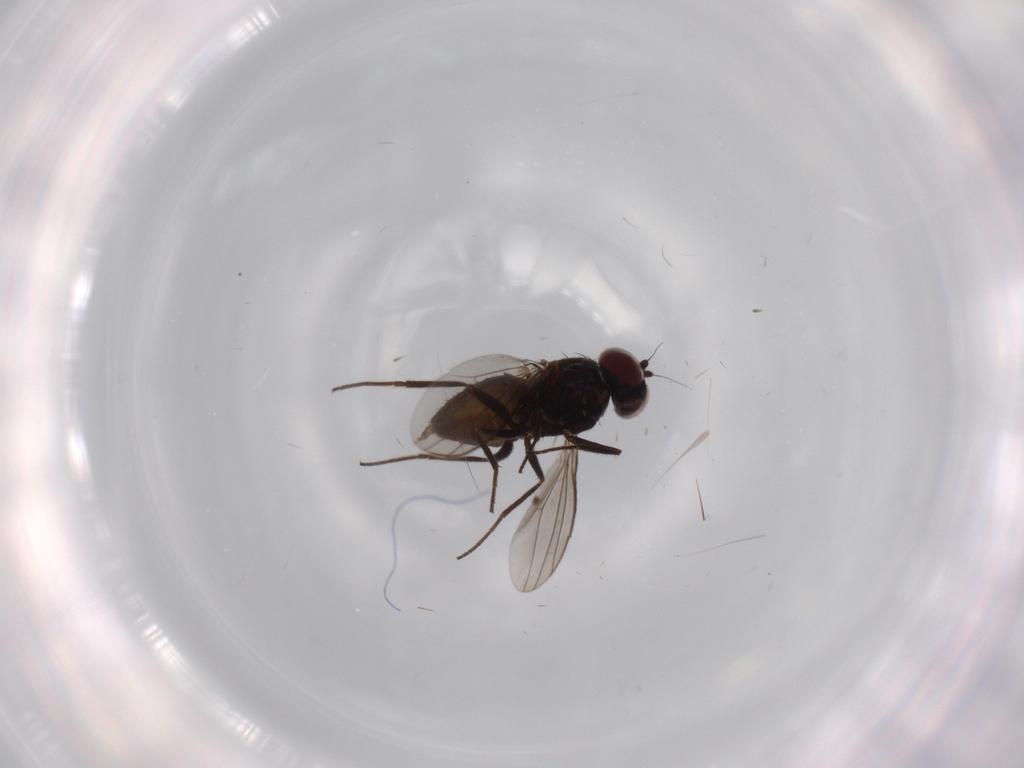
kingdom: Animalia
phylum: Arthropoda
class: Insecta
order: Diptera
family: Dolichopodidae
